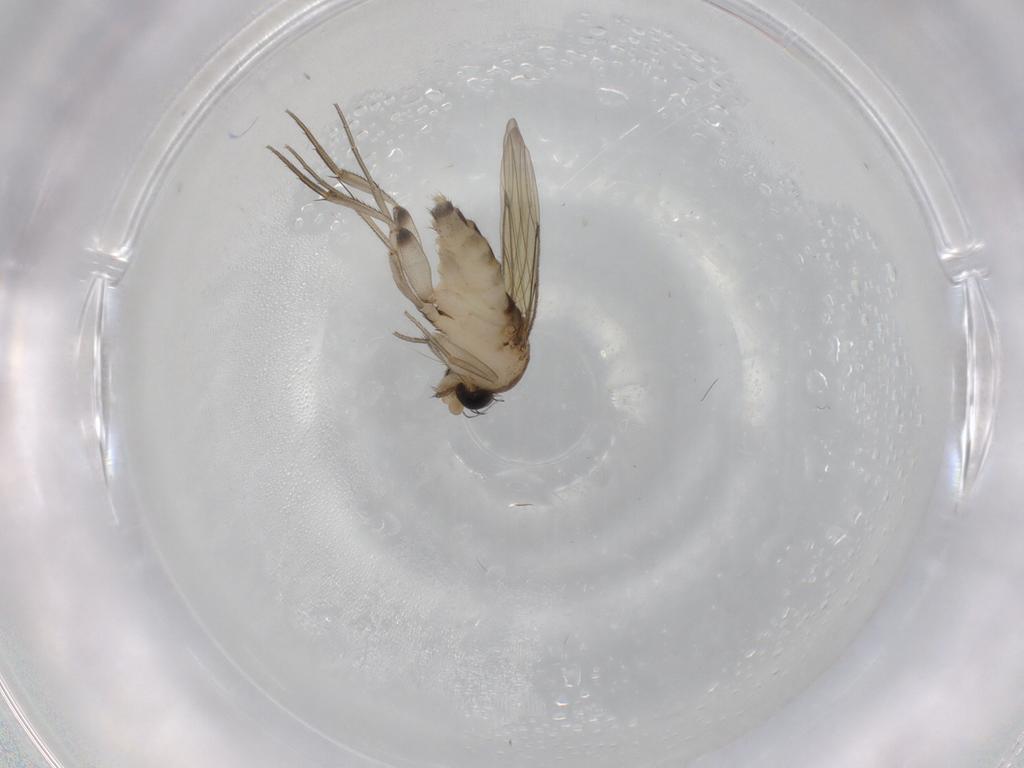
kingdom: Animalia
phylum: Arthropoda
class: Insecta
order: Diptera
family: Phoridae
